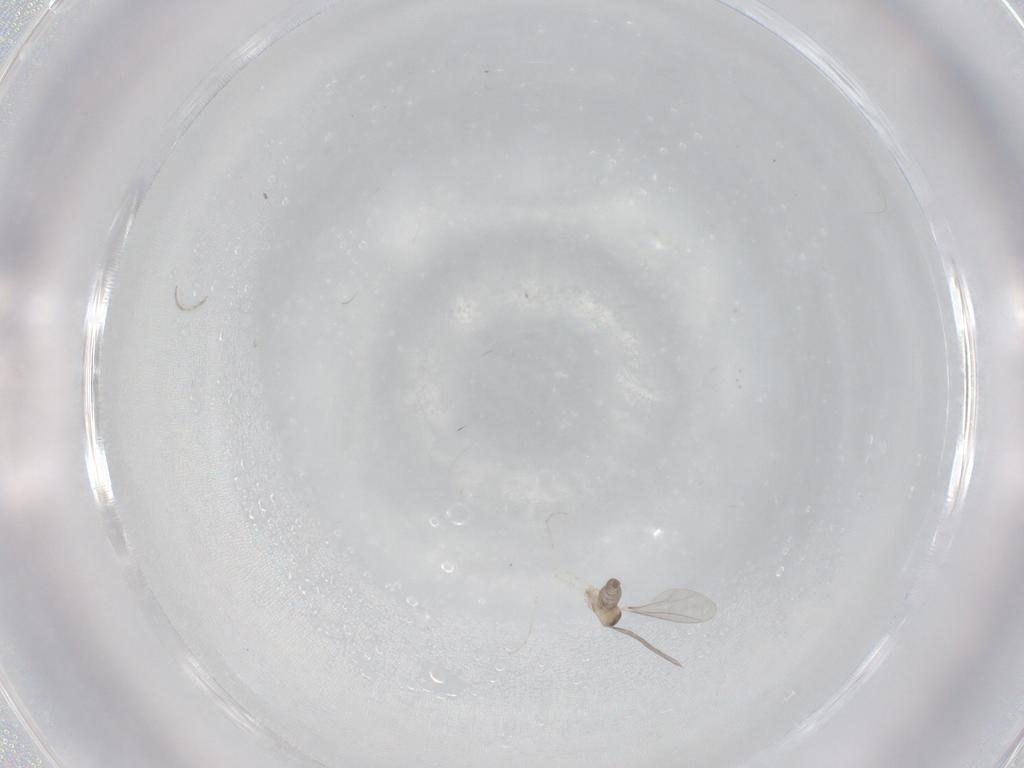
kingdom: Animalia
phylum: Arthropoda
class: Insecta
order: Diptera
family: Cecidomyiidae
